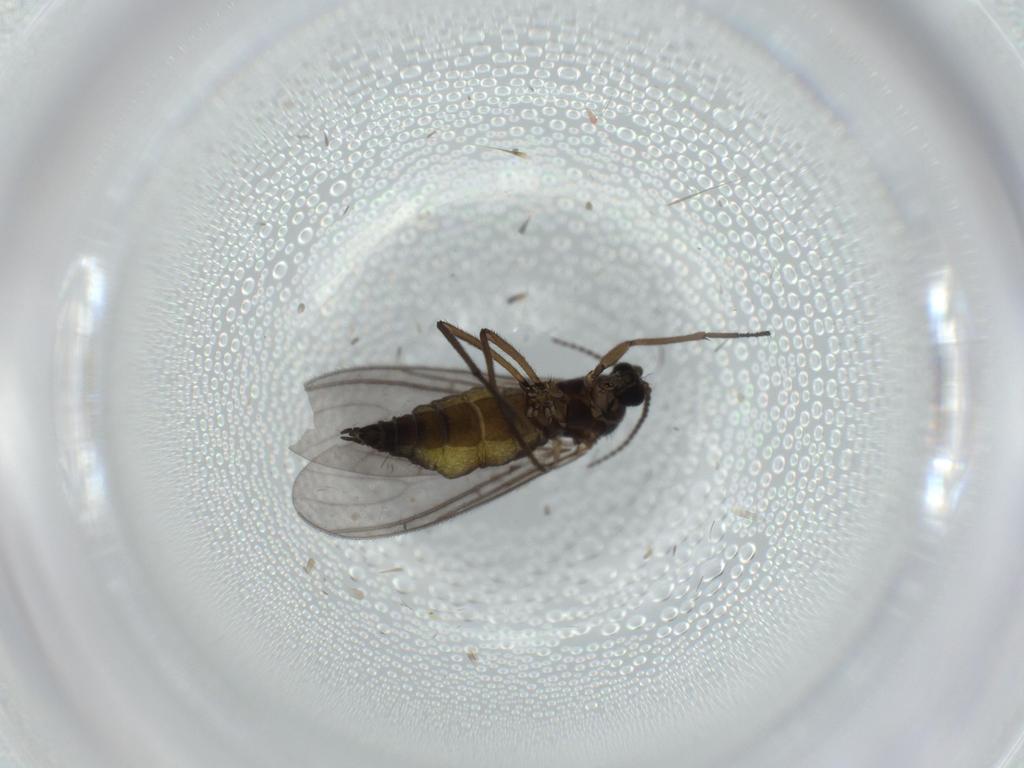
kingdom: Animalia
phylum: Arthropoda
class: Insecta
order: Diptera
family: Sciaridae
